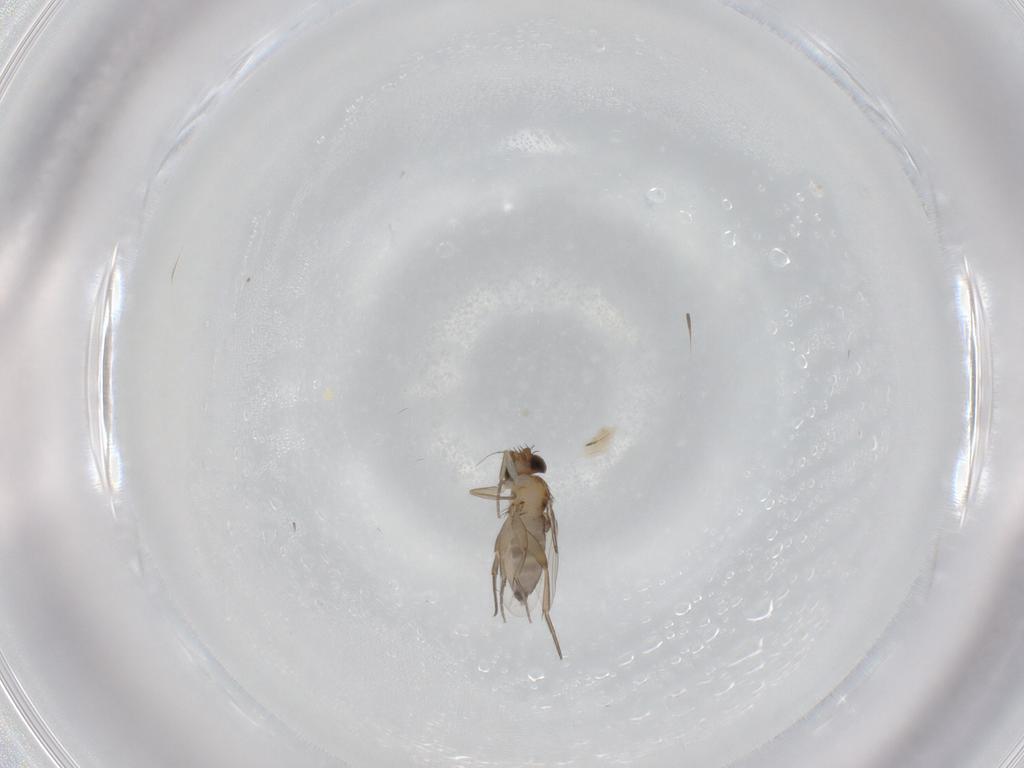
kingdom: Animalia
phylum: Arthropoda
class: Insecta
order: Diptera
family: Phoridae
